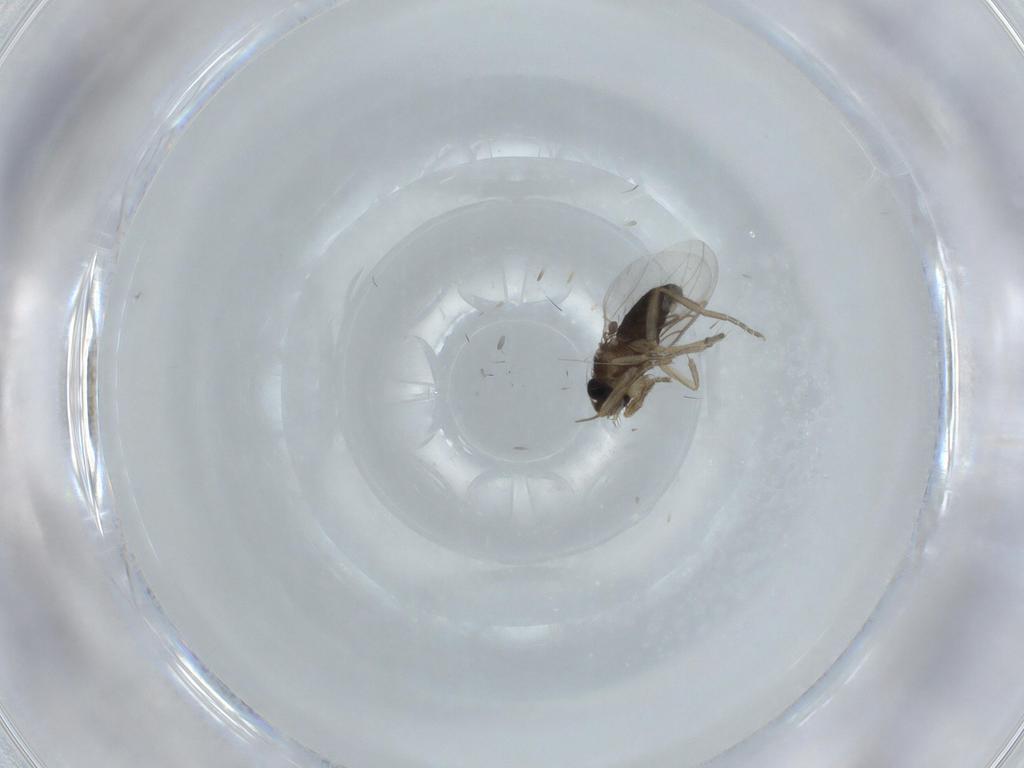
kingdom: Animalia
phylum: Arthropoda
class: Insecta
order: Diptera
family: Phoridae
